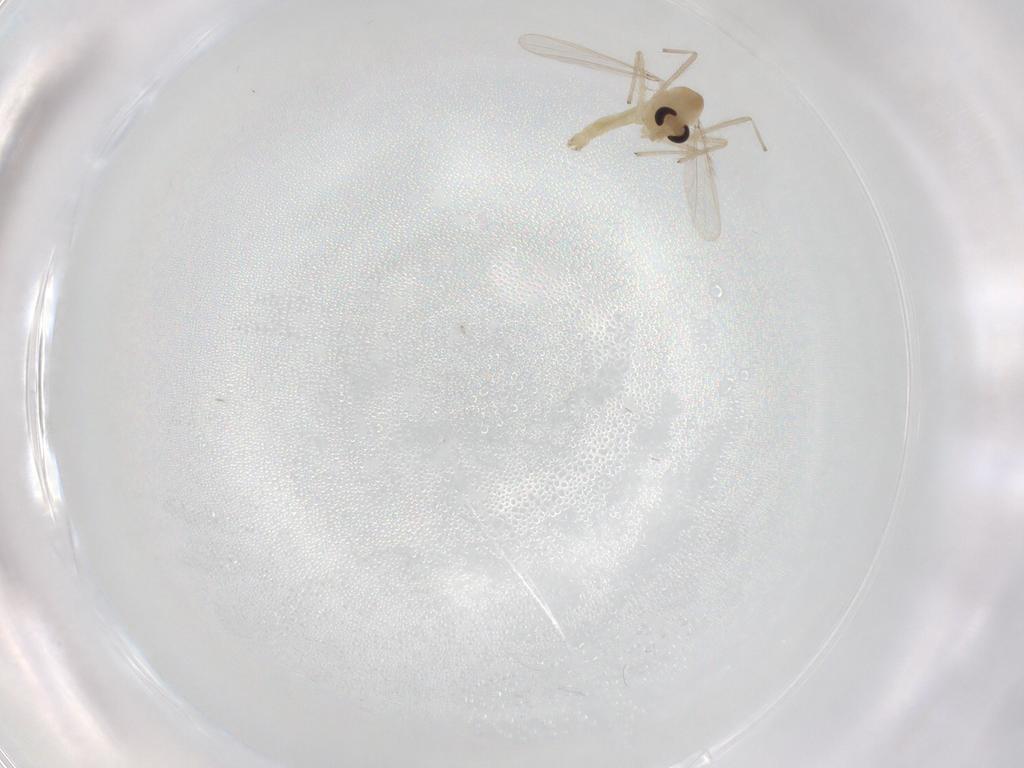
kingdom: Animalia
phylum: Arthropoda
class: Insecta
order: Diptera
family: Chironomidae
